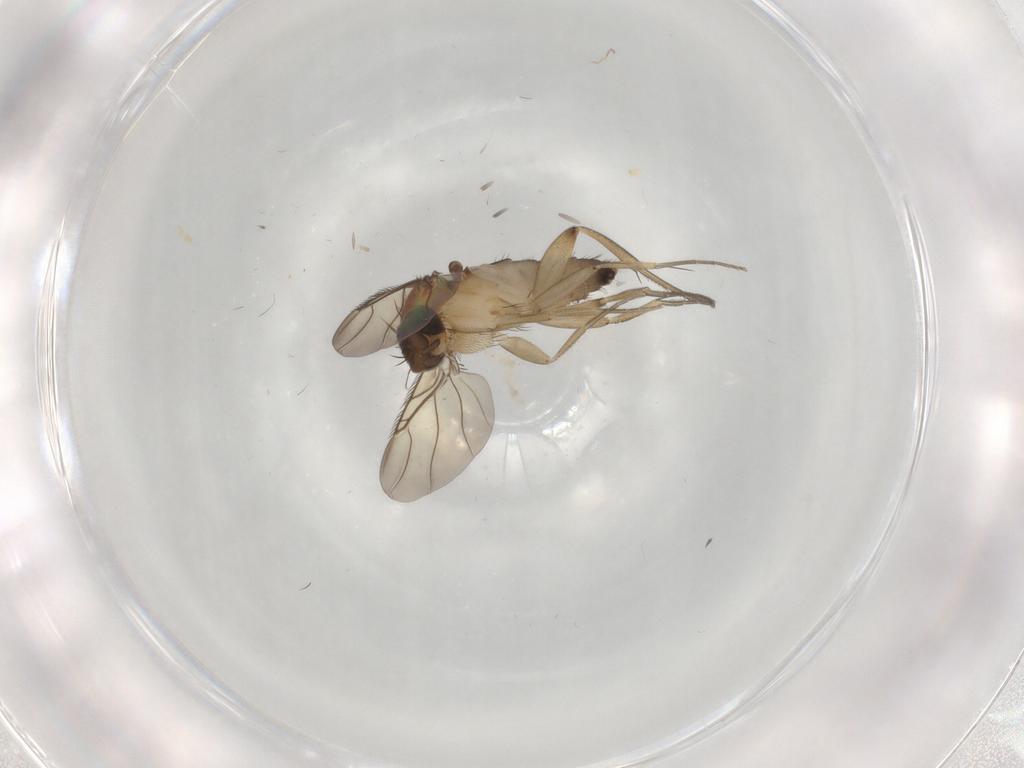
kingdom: Animalia
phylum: Arthropoda
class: Insecta
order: Diptera
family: Phoridae
